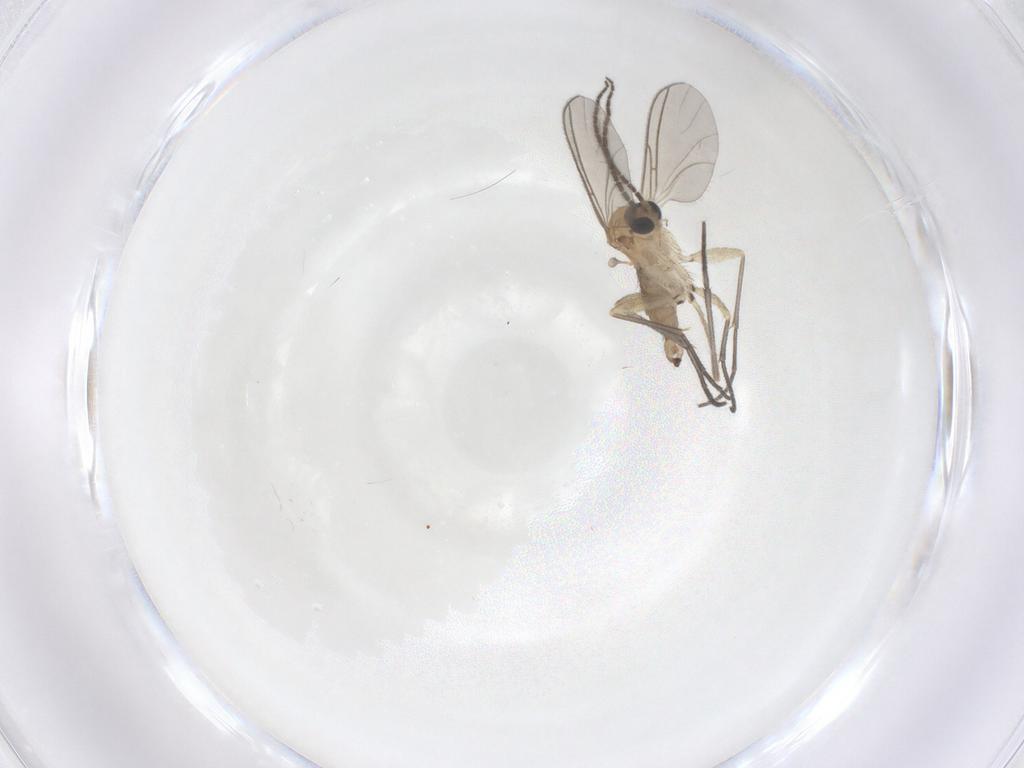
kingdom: Animalia
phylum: Arthropoda
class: Insecta
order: Diptera
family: Sciaridae
